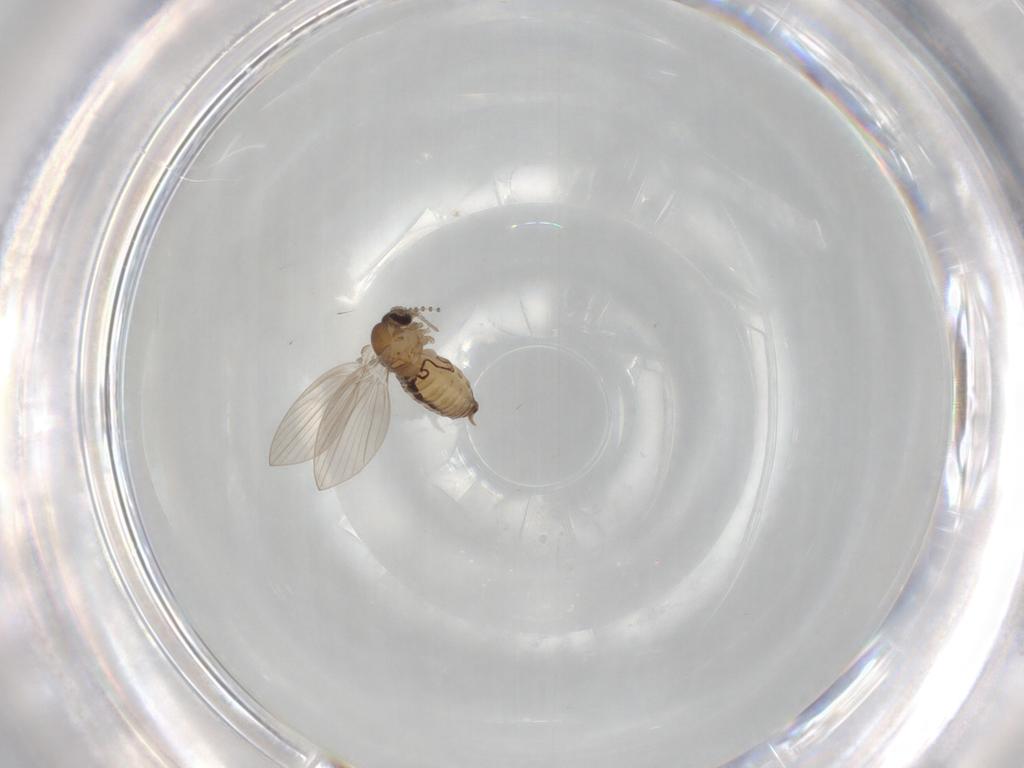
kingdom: Animalia
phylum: Arthropoda
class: Insecta
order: Diptera
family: Psychodidae
